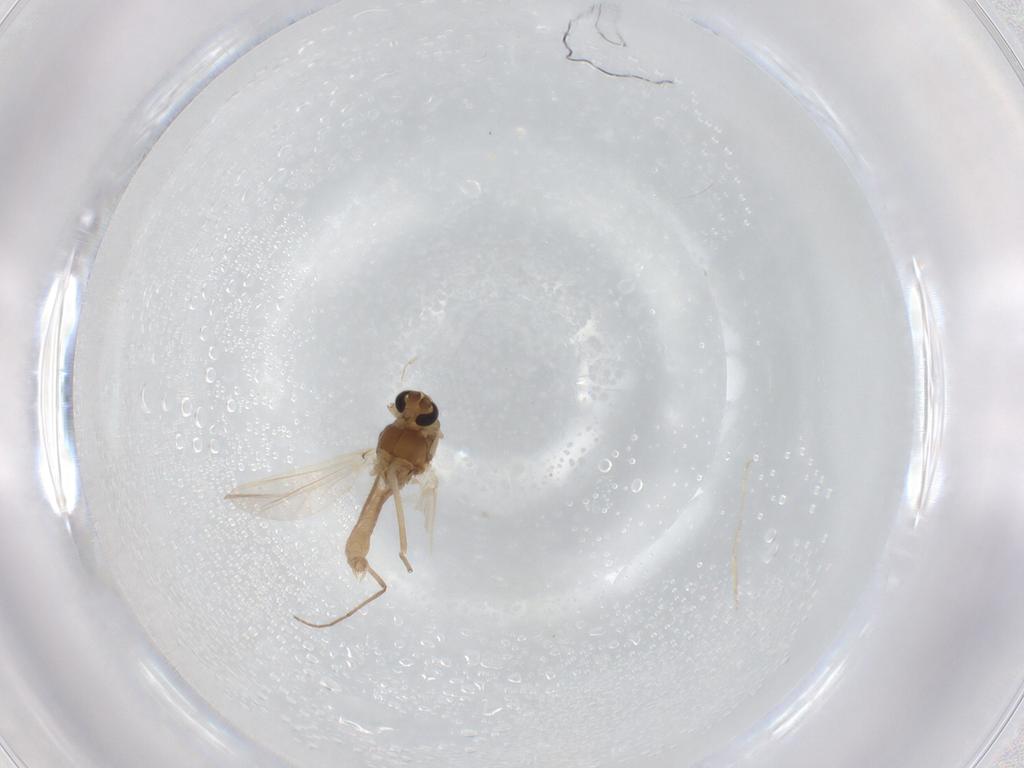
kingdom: Animalia
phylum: Arthropoda
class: Insecta
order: Diptera
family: Chironomidae
